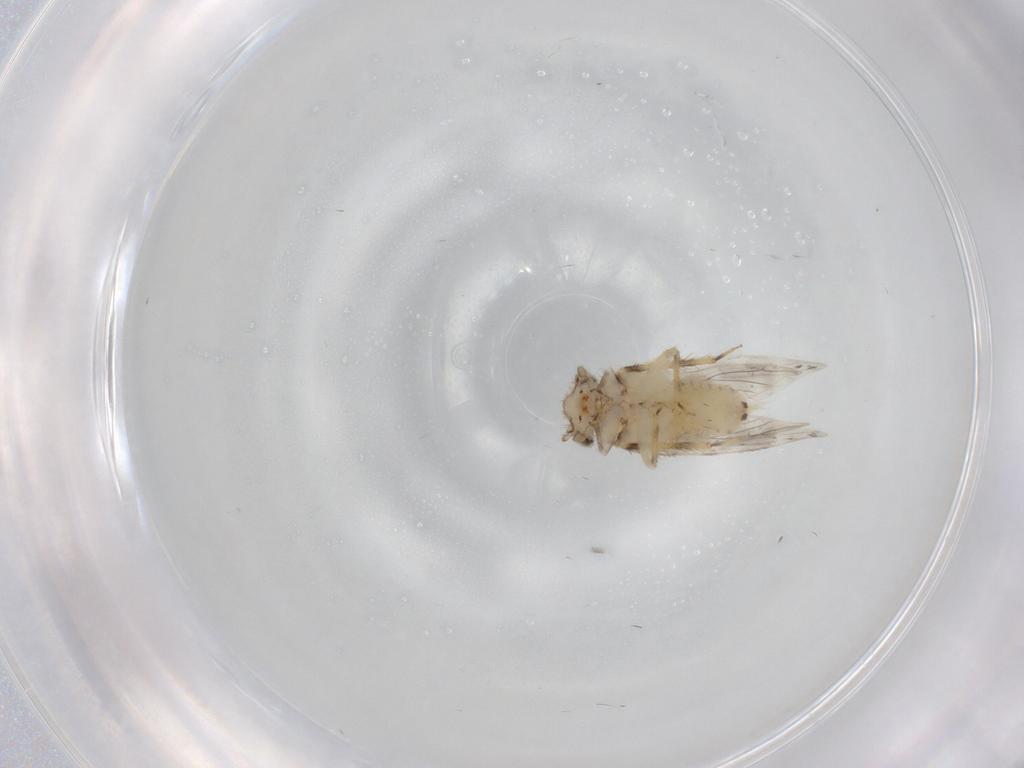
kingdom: Animalia
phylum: Arthropoda
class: Insecta
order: Psocodea
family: Lepidopsocidae
